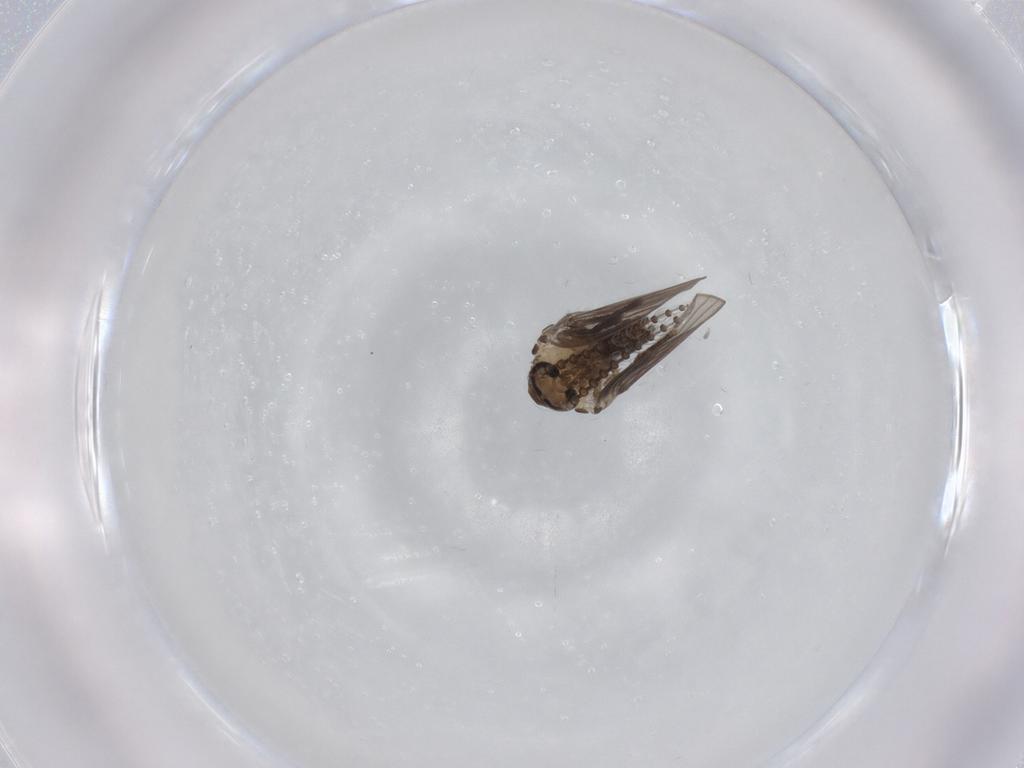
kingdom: Animalia
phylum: Arthropoda
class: Insecta
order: Diptera
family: Psychodidae
